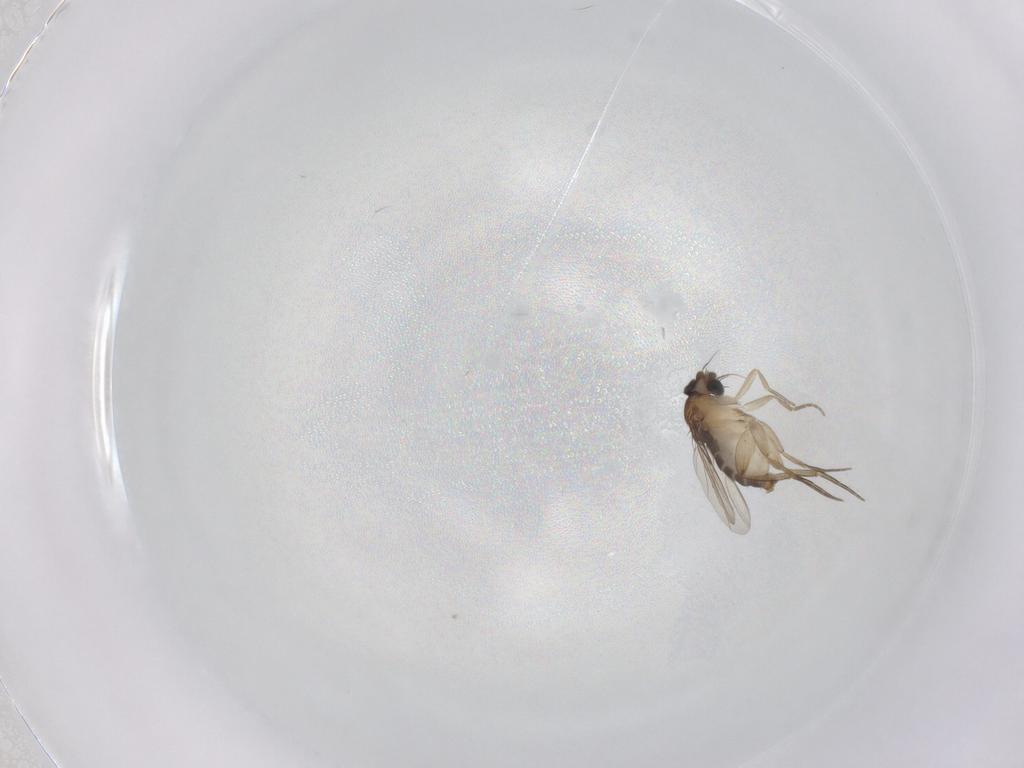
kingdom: Animalia
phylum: Arthropoda
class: Insecta
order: Diptera
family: Phoridae
